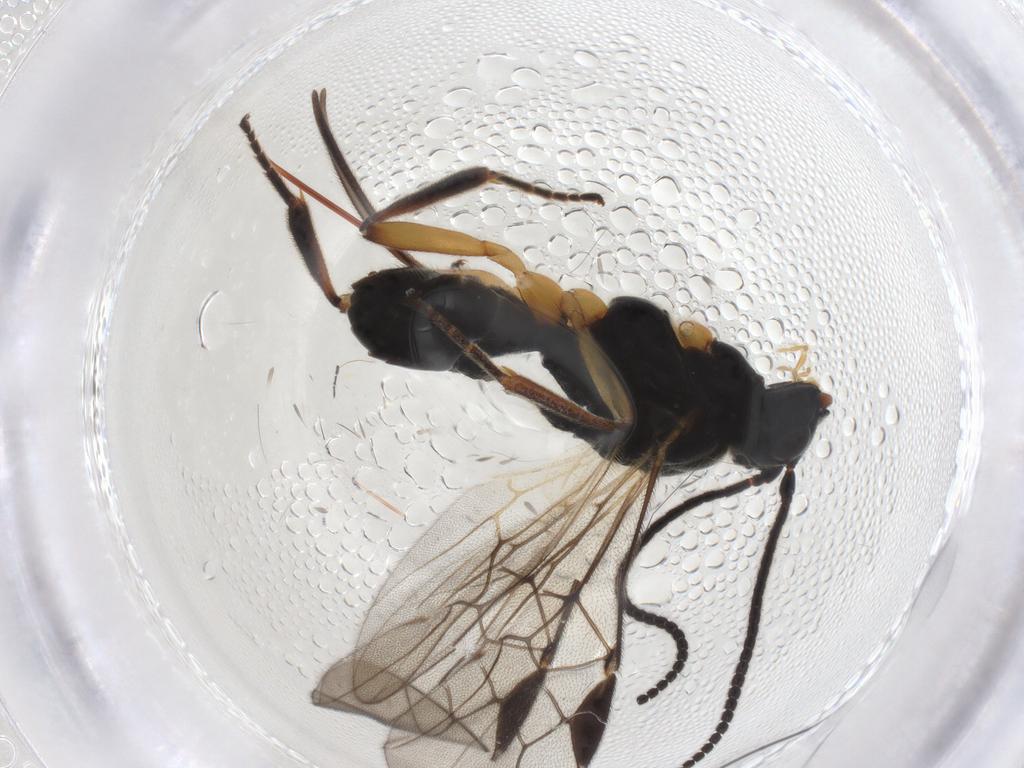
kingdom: Animalia
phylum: Arthropoda
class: Insecta
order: Hymenoptera
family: Braconidae
